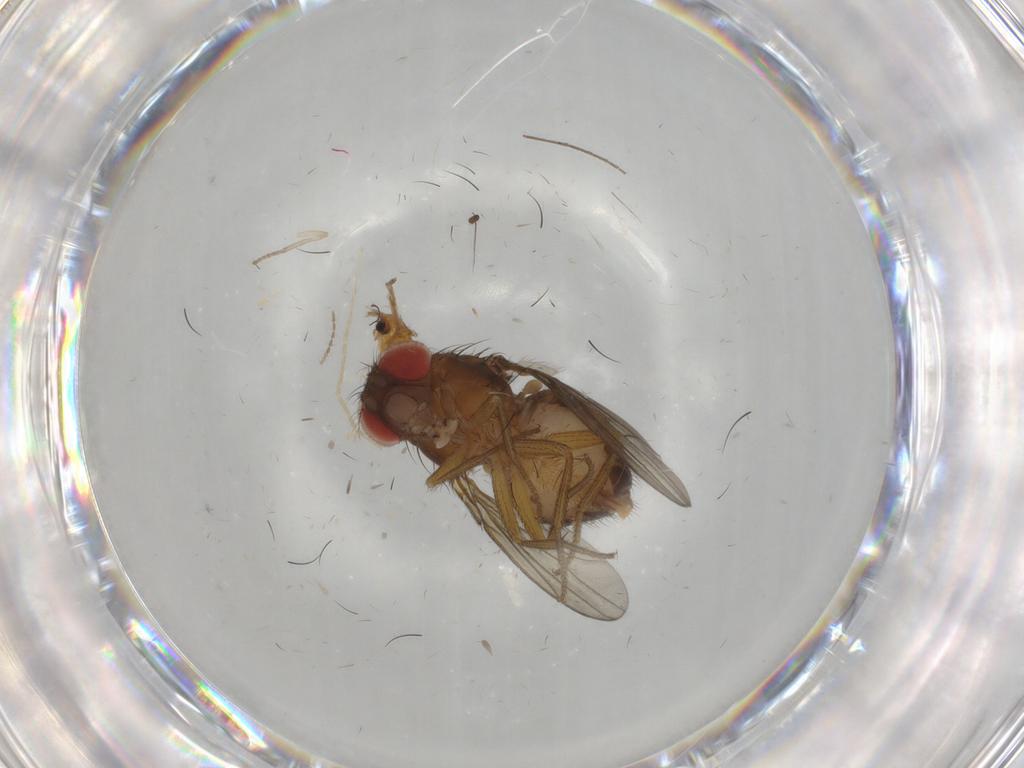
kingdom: Animalia
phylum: Arthropoda
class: Insecta
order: Diptera
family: Drosophilidae
